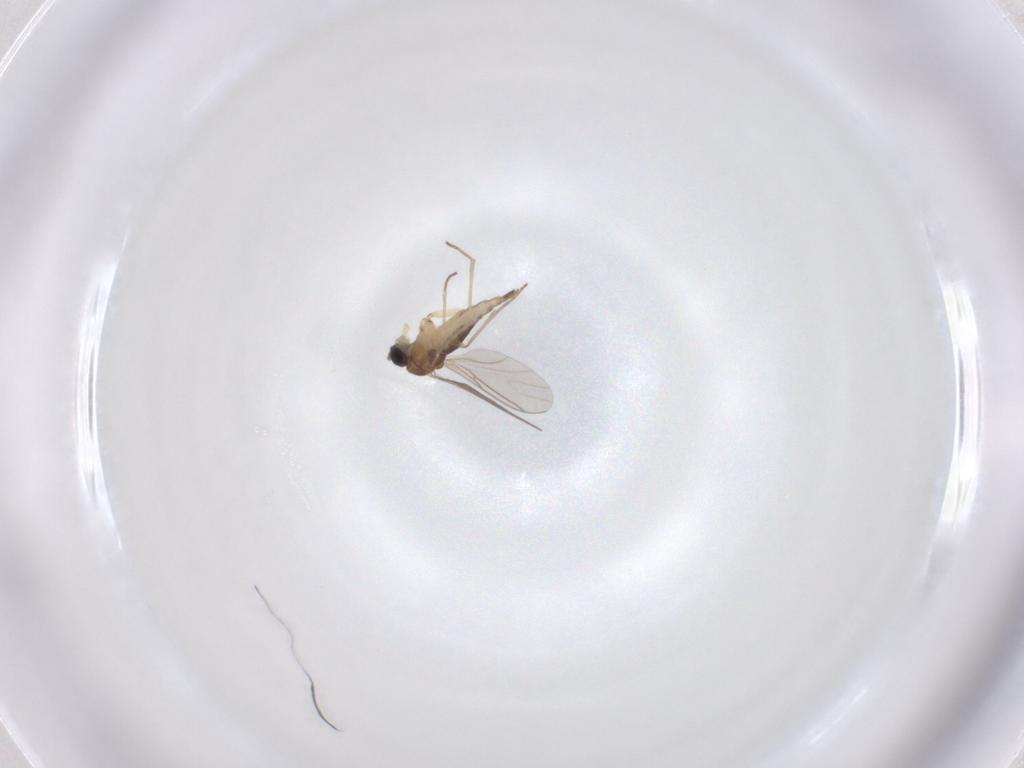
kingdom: Animalia
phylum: Arthropoda
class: Insecta
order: Diptera
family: Sciaridae
